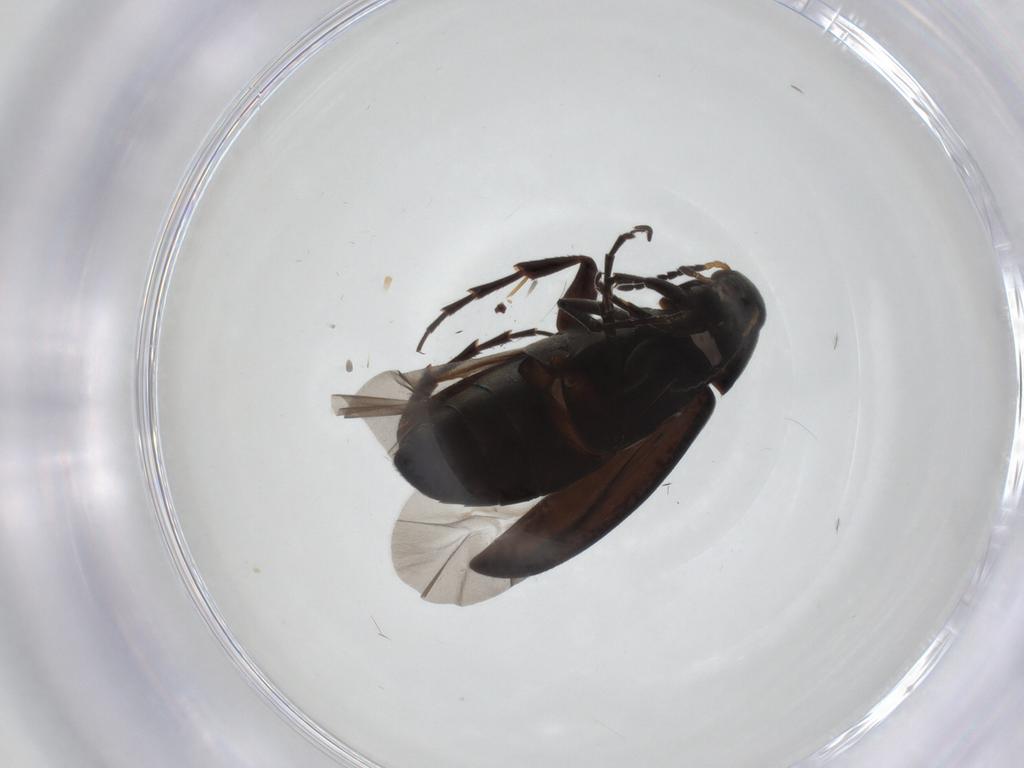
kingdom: Animalia
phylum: Arthropoda
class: Insecta
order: Coleoptera
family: Scraptiidae
